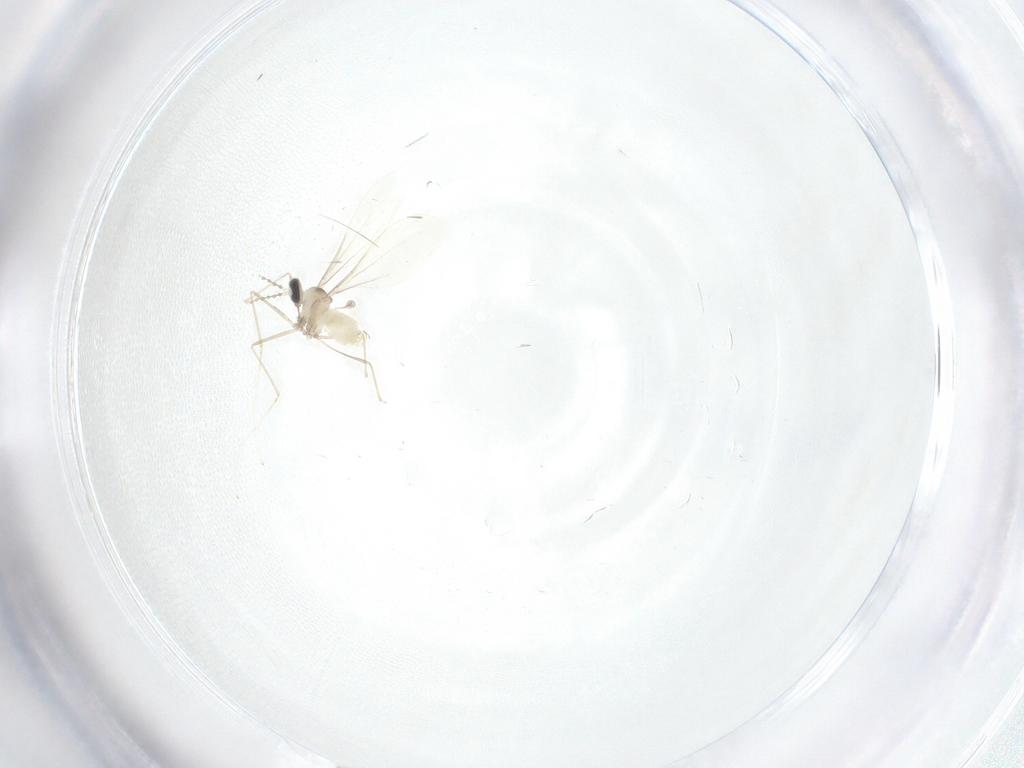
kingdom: Animalia
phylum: Arthropoda
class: Insecta
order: Diptera
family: Cecidomyiidae
